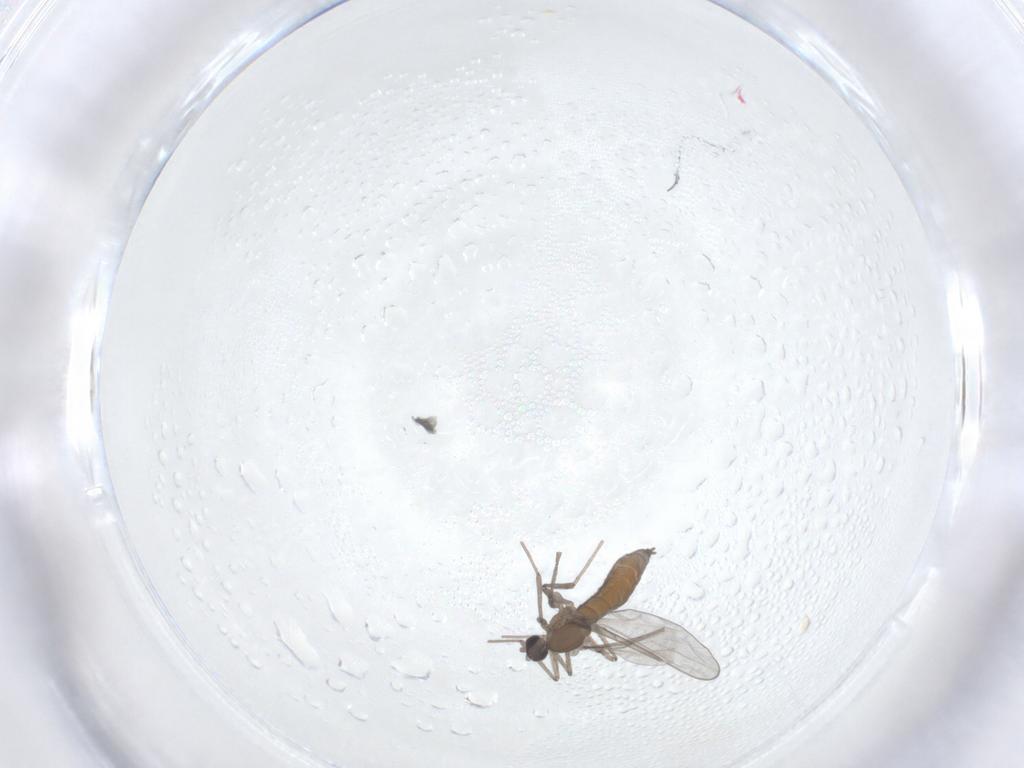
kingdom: Animalia
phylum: Arthropoda
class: Insecta
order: Diptera
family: Cecidomyiidae
